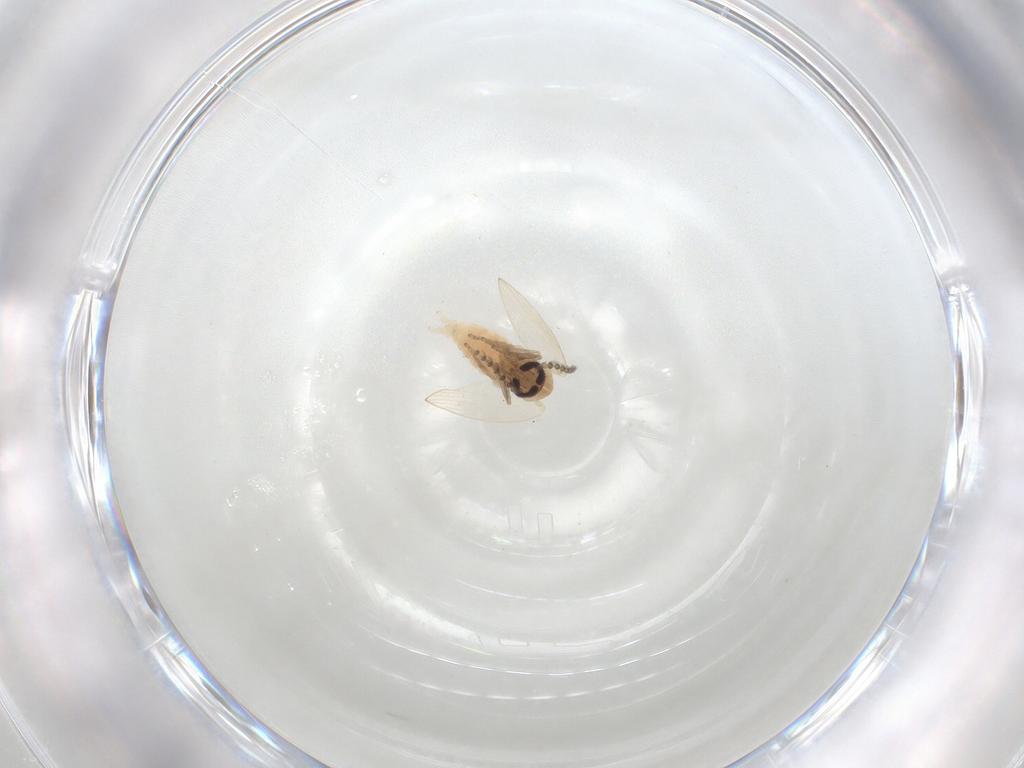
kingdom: Animalia
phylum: Arthropoda
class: Insecta
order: Diptera
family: Psychodidae
